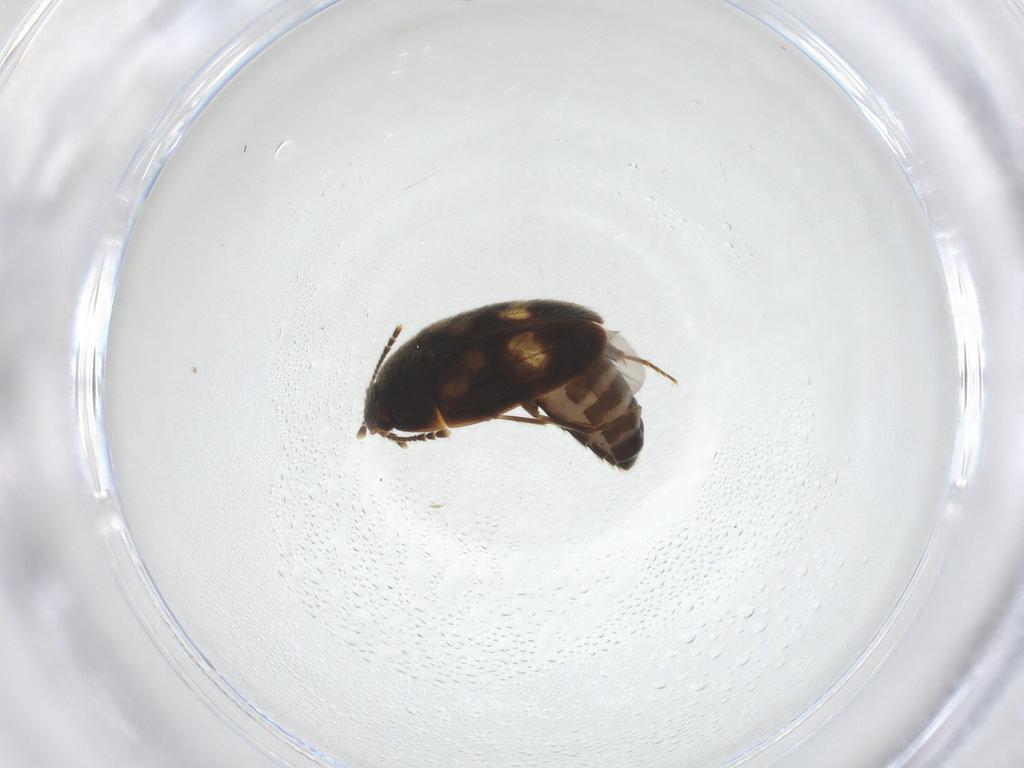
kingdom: Animalia
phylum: Arthropoda
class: Insecta
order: Coleoptera
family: Mycetophagidae
